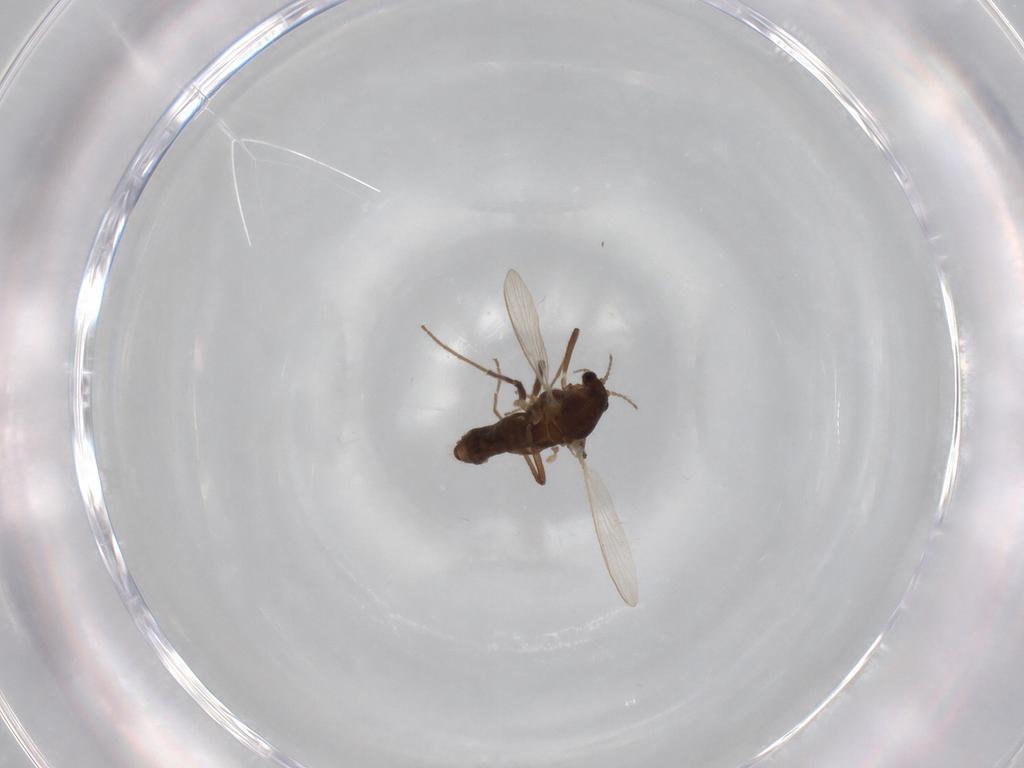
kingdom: Animalia
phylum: Arthropoda
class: Insecta
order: Diptera
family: Chironomidae
